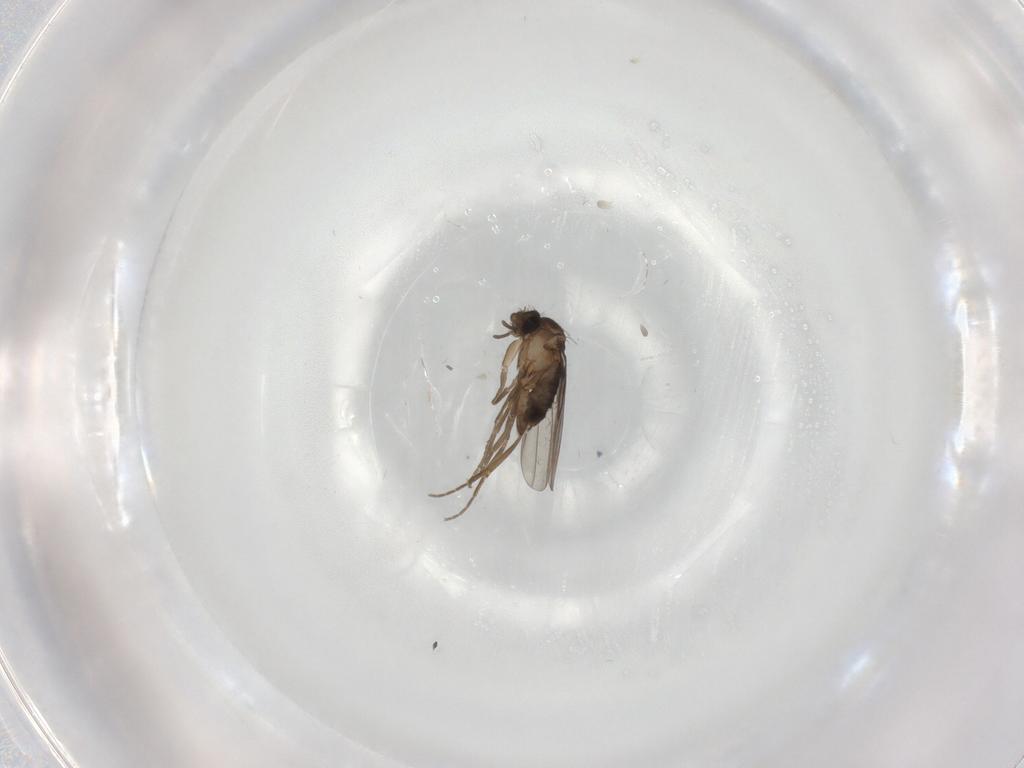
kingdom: Animalia
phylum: Arthropoda
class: Insecta
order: Diptera
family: Phoridae
